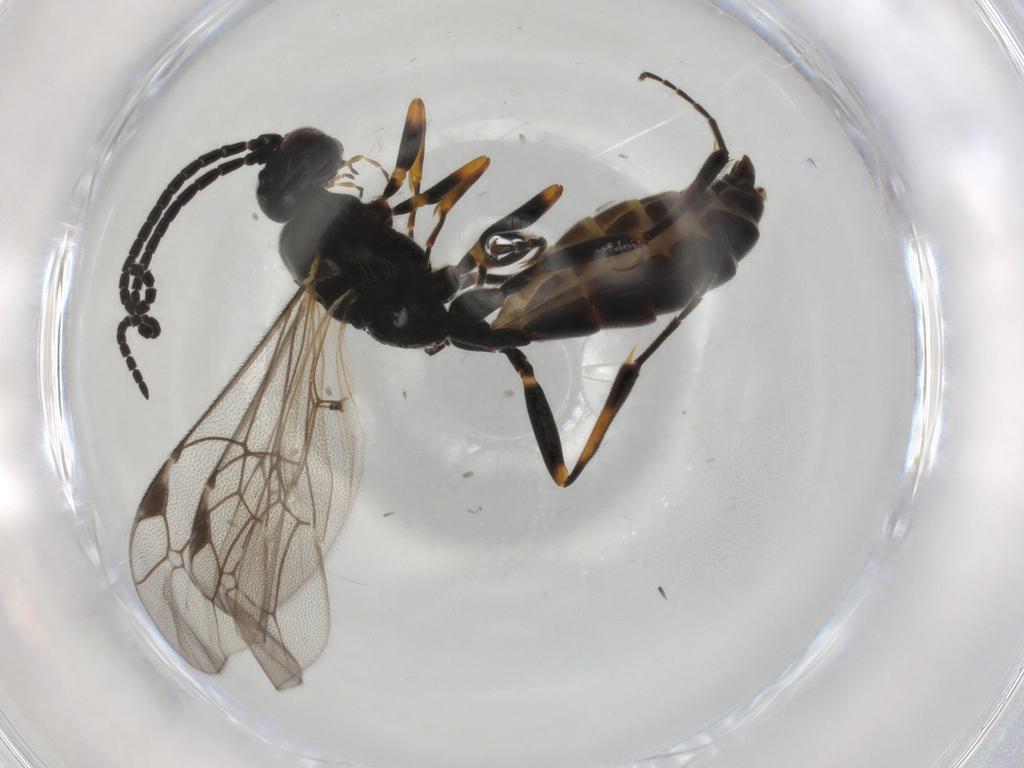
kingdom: Animalia
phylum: Arthropoda
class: Insecta
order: Hymenoptera
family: Ichneumonidae
